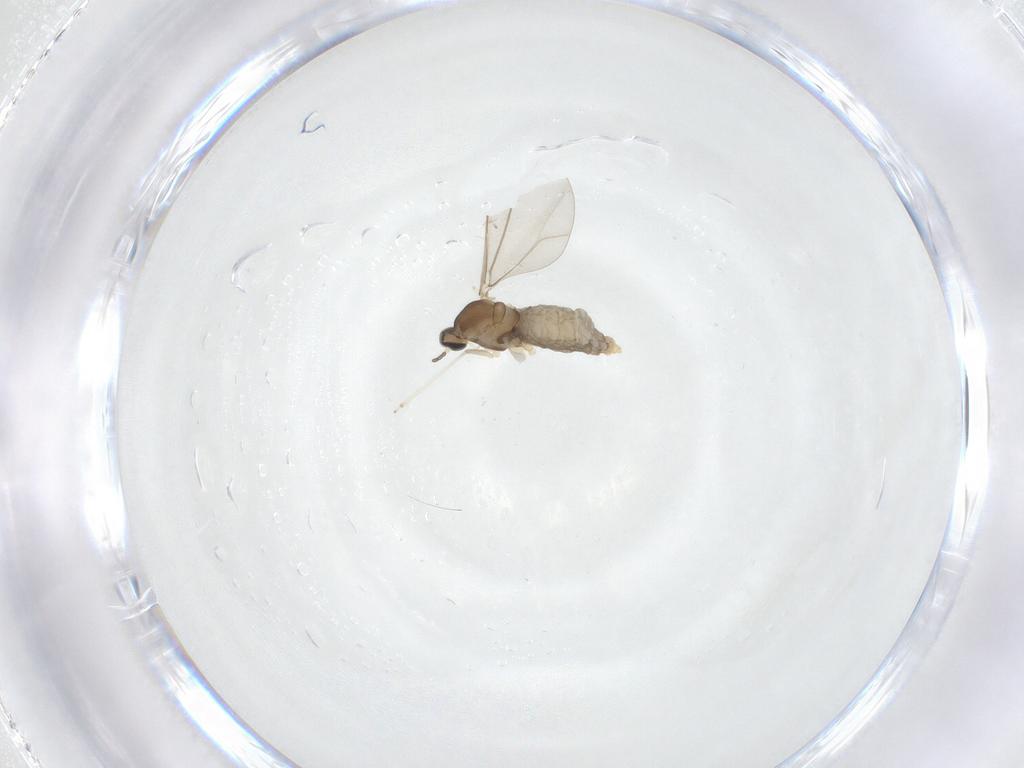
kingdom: Animalia
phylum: Arthropoda
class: Insecta
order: Diptera
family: Cecidomyiidae
